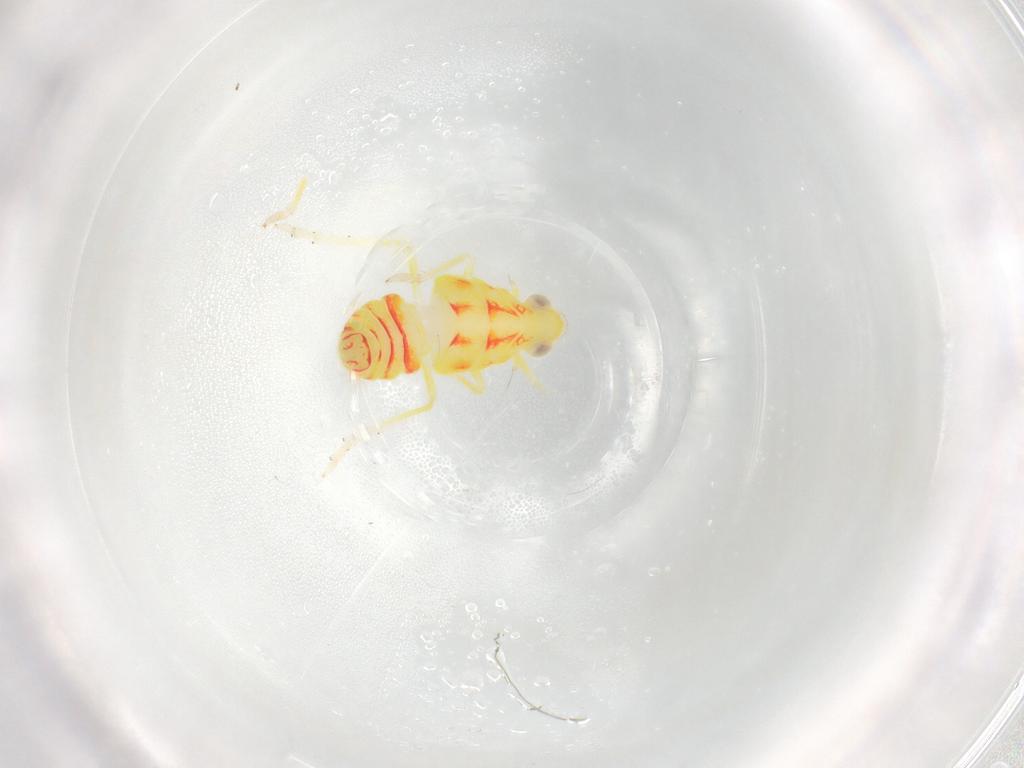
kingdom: Animalia
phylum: Arthropoda
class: Insecta
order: Hemiptera
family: Tropiduchidae
